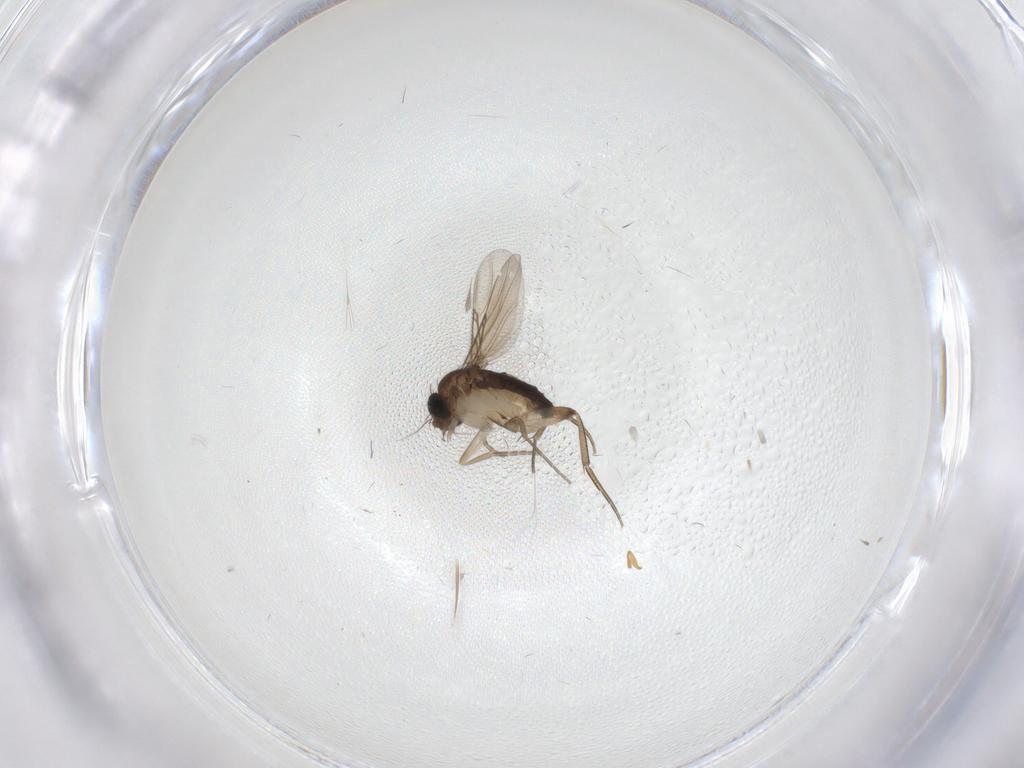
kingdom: Animalia
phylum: Arthropoda
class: Insecta
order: Diptera
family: Phoridae
